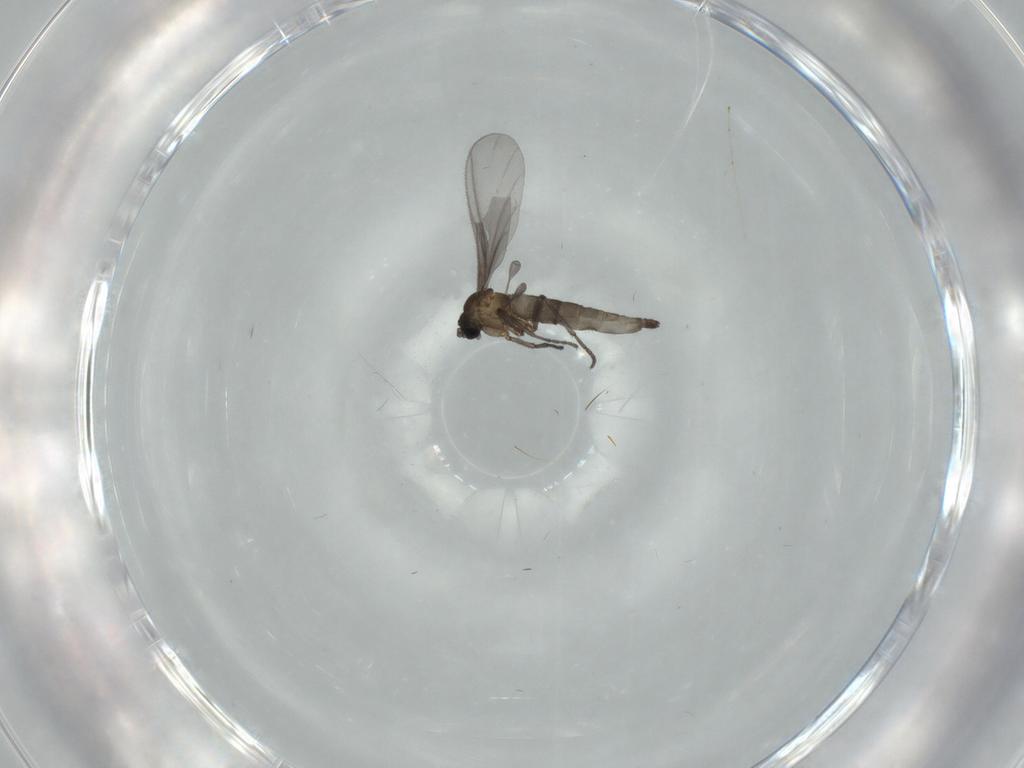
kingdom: Animalia
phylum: Arthropoda
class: Insecta
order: Diptera
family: Cecidomyiidae
